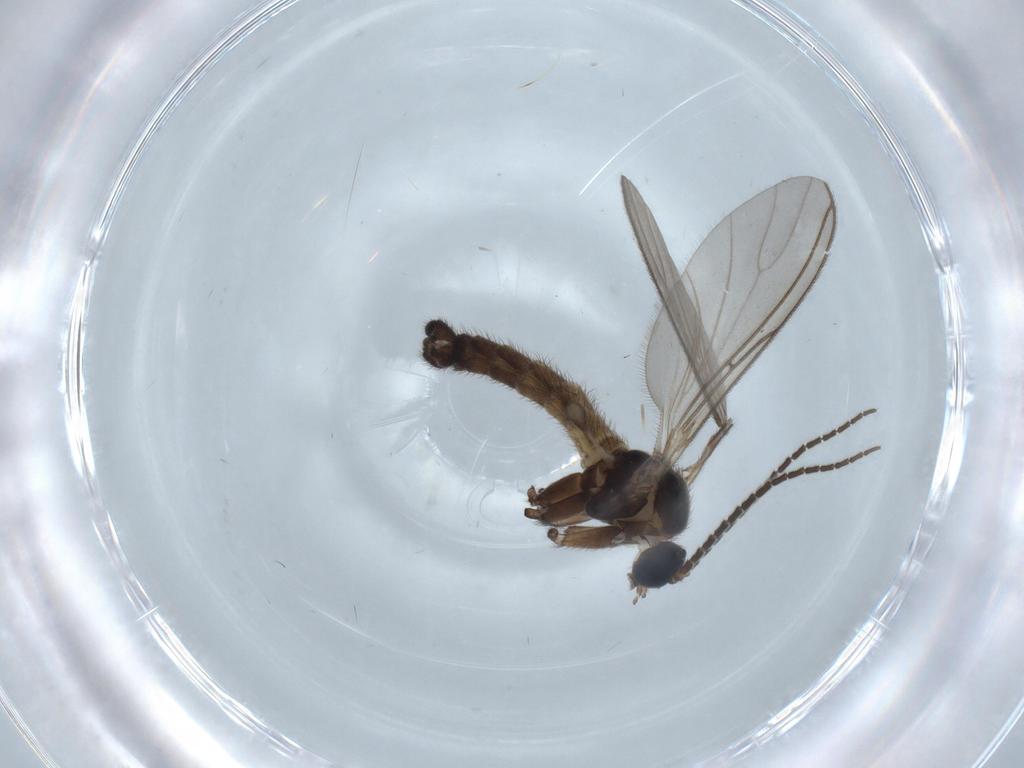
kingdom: Animalia
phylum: Arthropoda
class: Insecta
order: Diptera
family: Sciaridae
